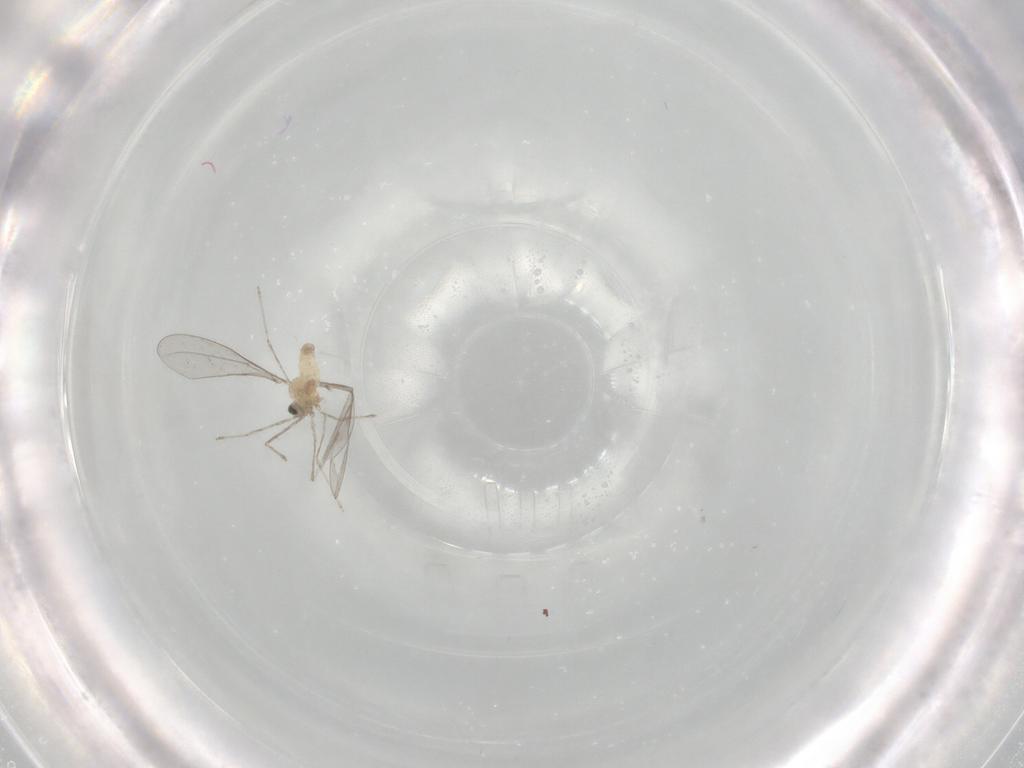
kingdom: Animalia
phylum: Arthropoda
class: Insecta
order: Diptera
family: Cecidomyiidae
